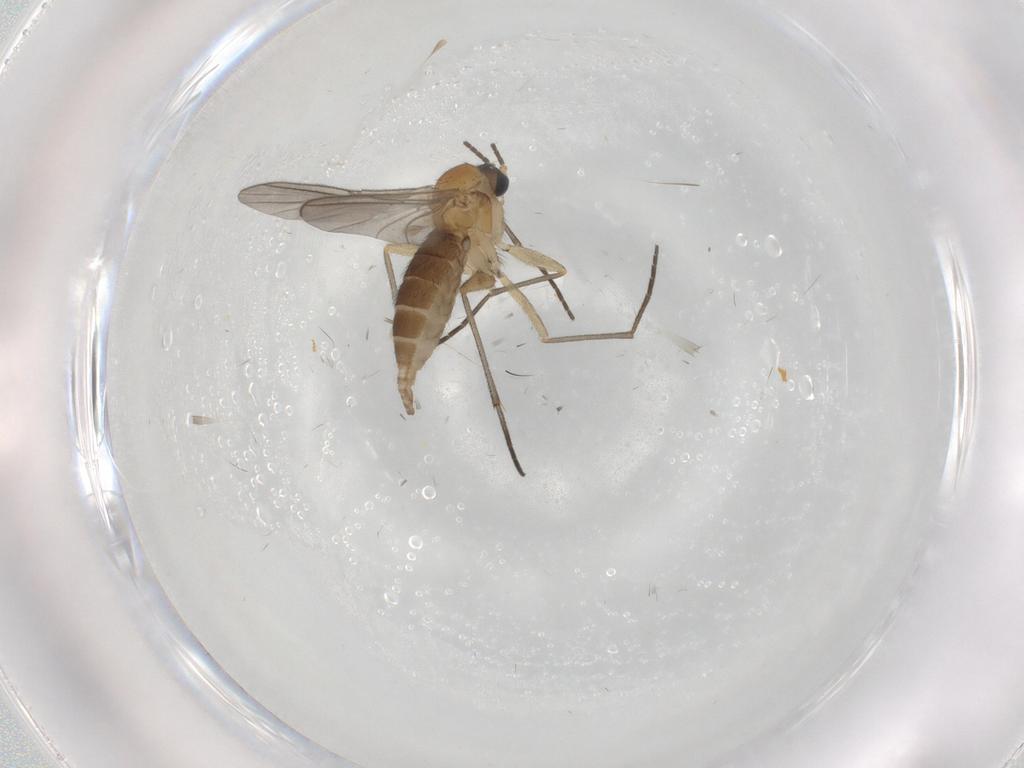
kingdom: Animalia
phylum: Arthropoda
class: Insecta
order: Diptera
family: Sciaridae
